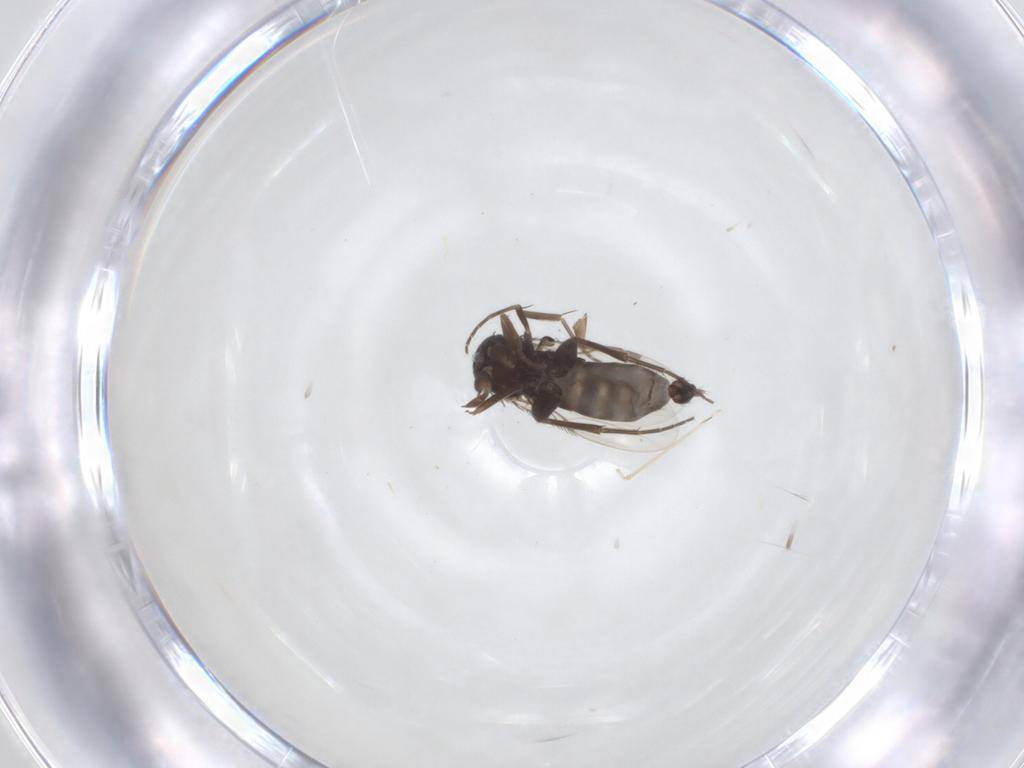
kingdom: Animalia
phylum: Arthropoda
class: Insecta
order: Diptera
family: Phoridae
